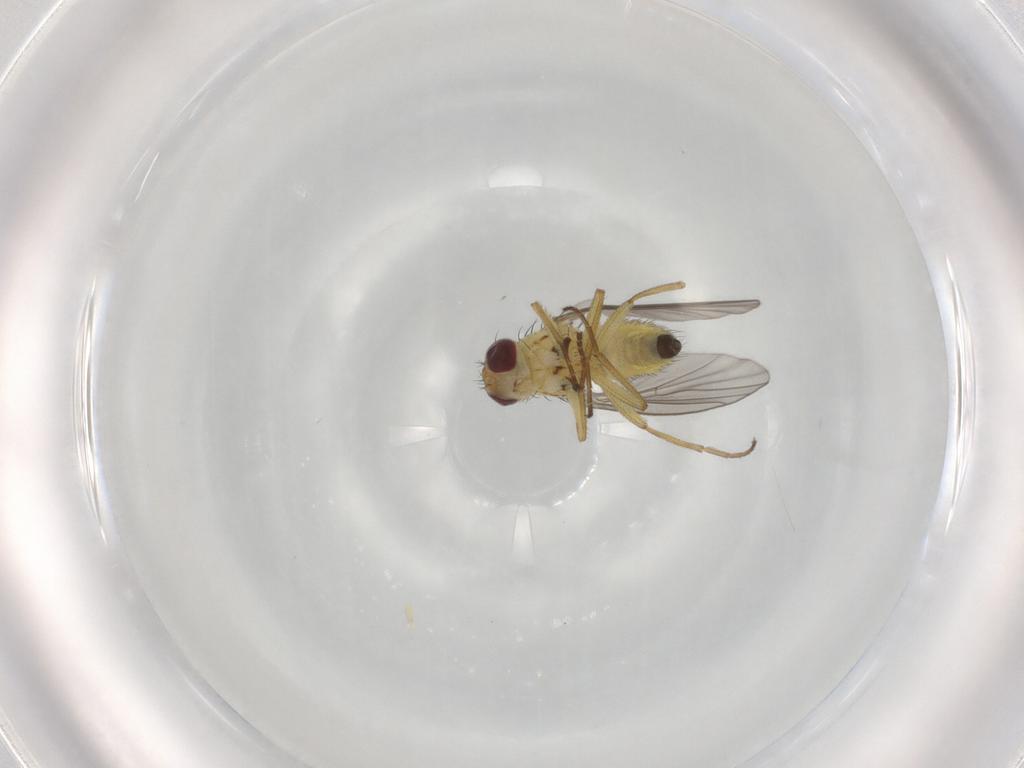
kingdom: Animalia
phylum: Arthropoda
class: Insecta
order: Diptera
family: Agromyzidae
